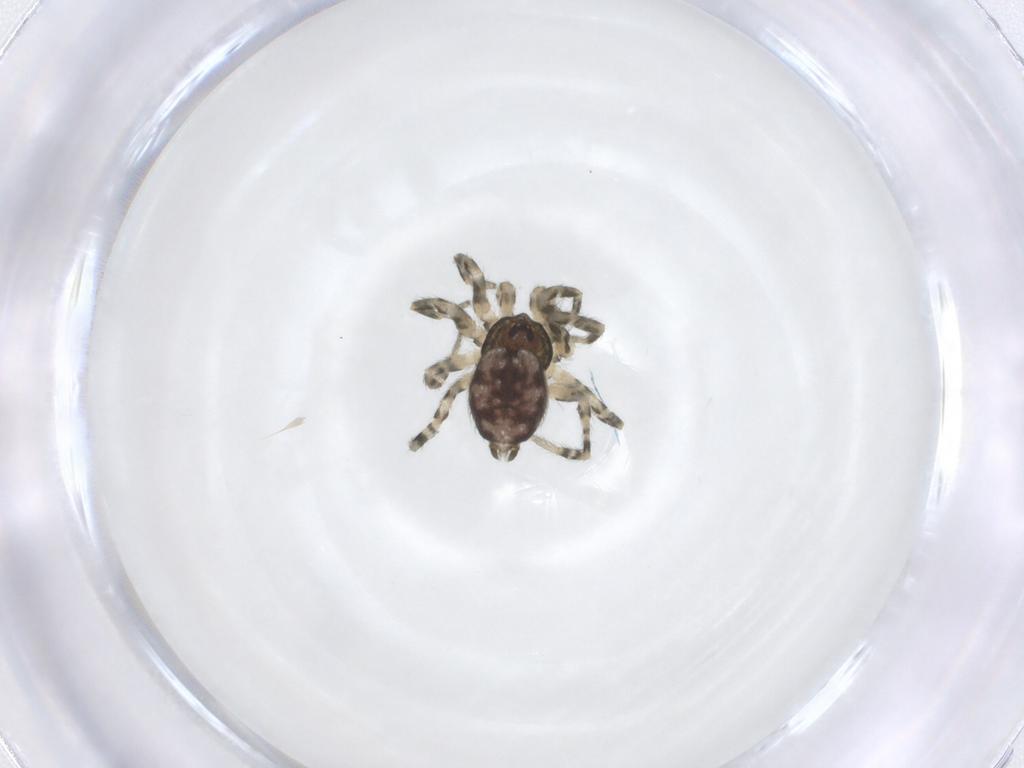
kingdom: Animalia
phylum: Arthropoda
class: Arachnida
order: Araneae
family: Oecobiidae
